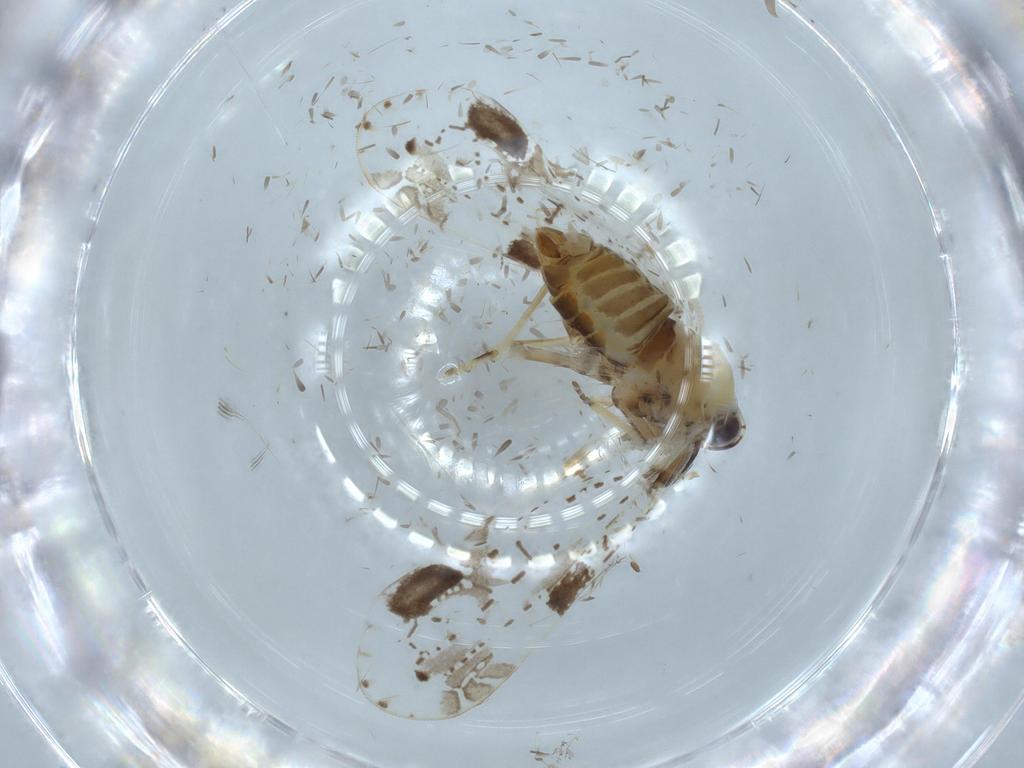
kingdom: Animalia
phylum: Arthropoda
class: Insecta
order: Hemiptera
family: Derbidae
